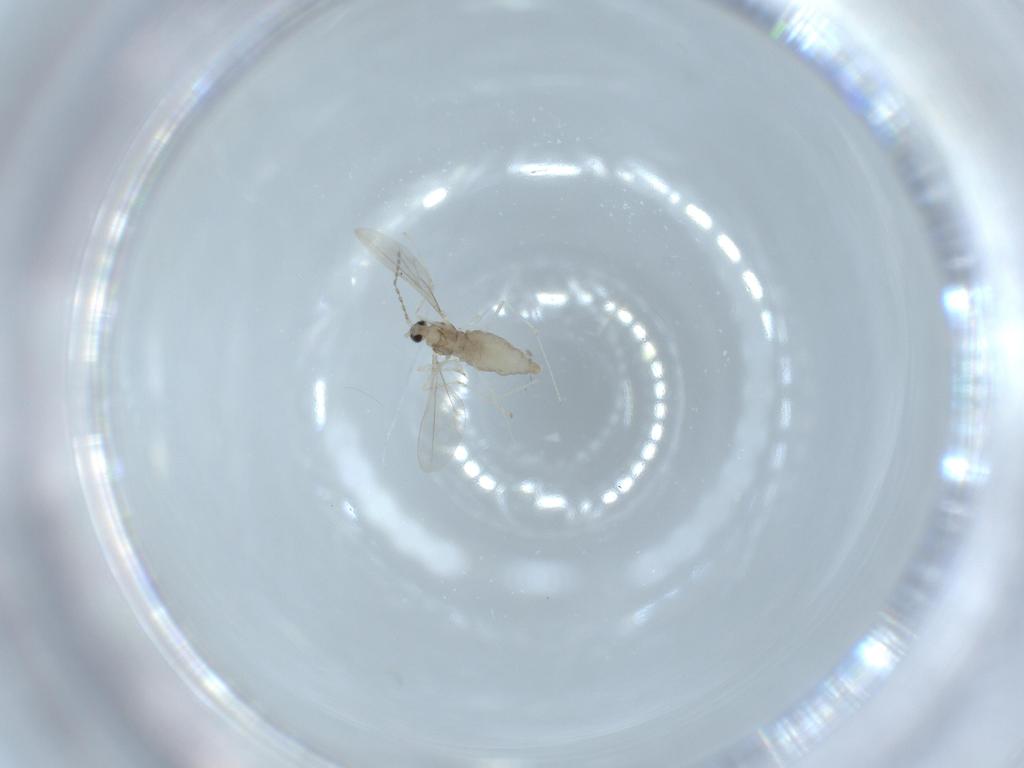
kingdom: Animalia
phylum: Arthropoda
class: Insecta
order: Diptera
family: Cecidomyiidae
